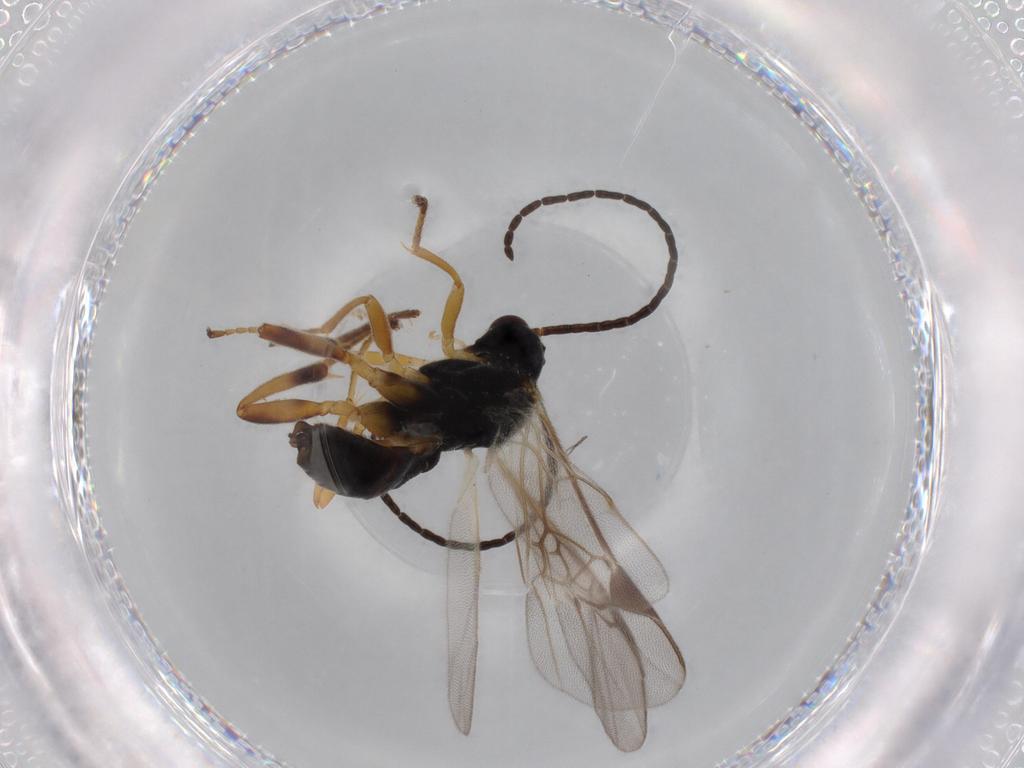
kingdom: Animalia
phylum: Arthropoda
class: Insecta
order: Hymenoptera
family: Braconidae
